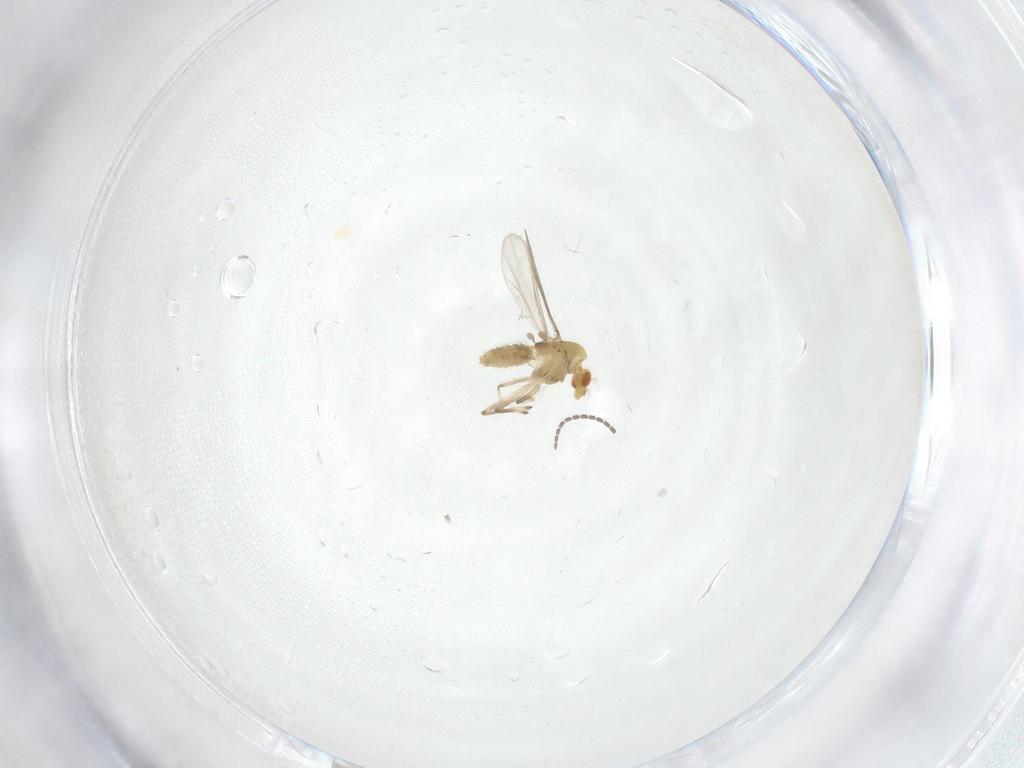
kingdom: Animalia
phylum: Arthropoda
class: Insecta
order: Diptera
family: Chironomidae
